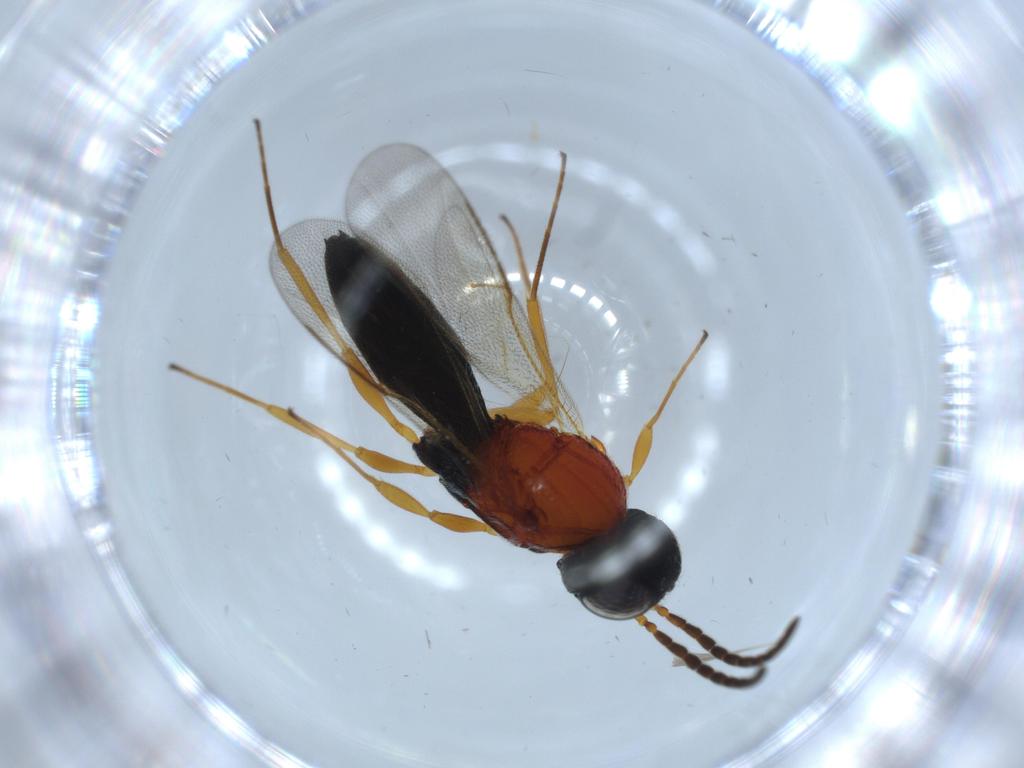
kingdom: Animalia
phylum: Arthropoda
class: Insecta
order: Hymenoptera
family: Scelionidae
